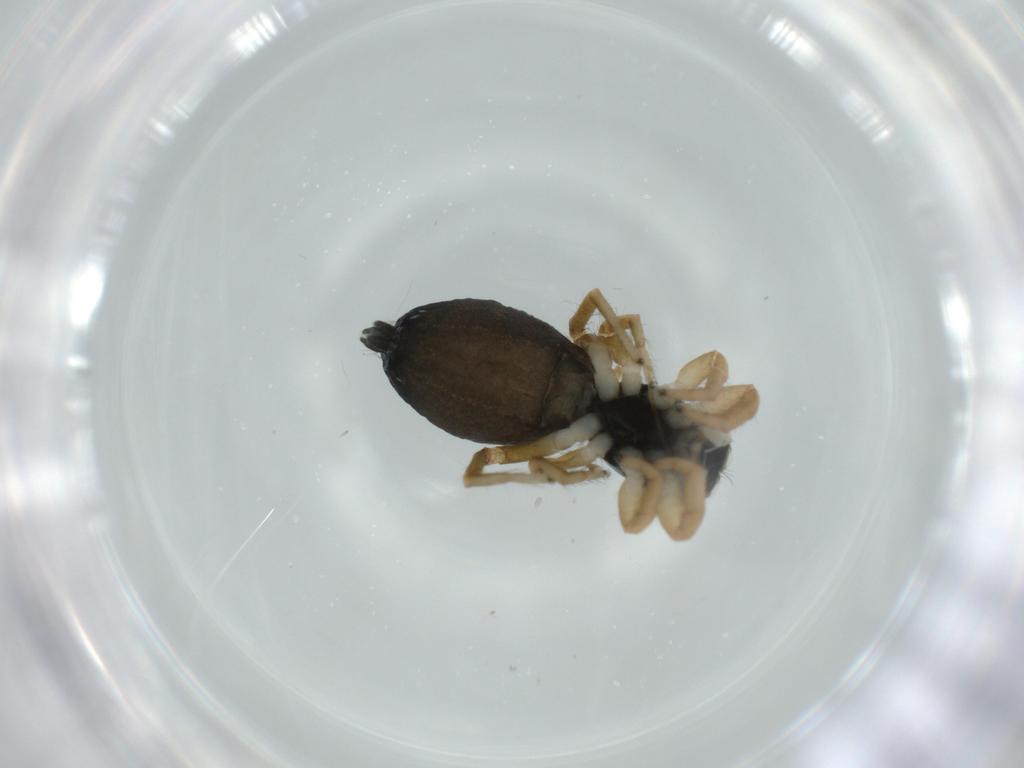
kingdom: Animalia
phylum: Arthropoda
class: Arachnida
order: Araneae
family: Salticidae
